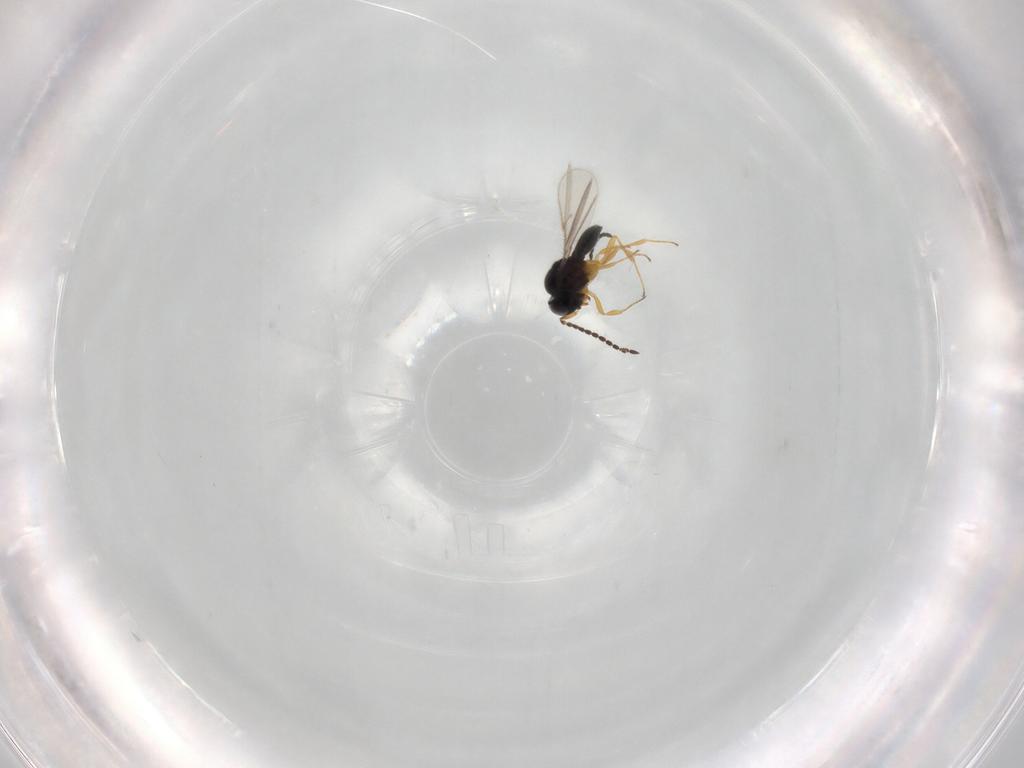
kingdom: Animalia
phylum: Arthropoda
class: Insecta
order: Hymenoptera
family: Scelionidae
